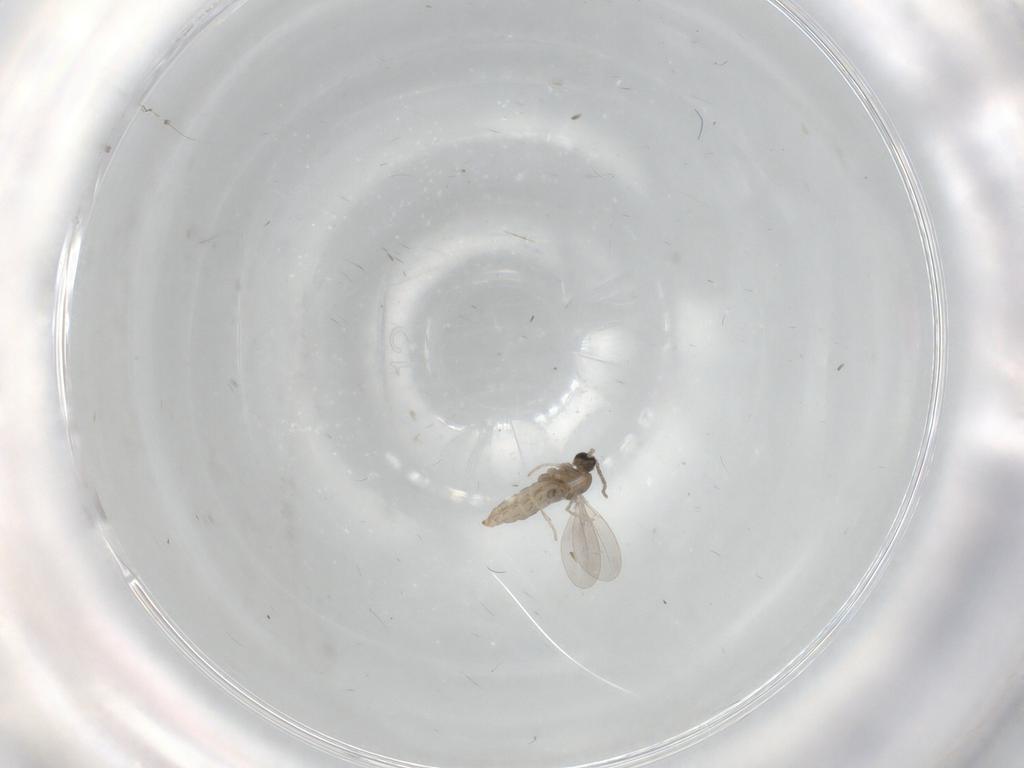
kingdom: Animalia
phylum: Arthropoda
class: Insecta
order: Diptera
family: Cecidomyiidae
